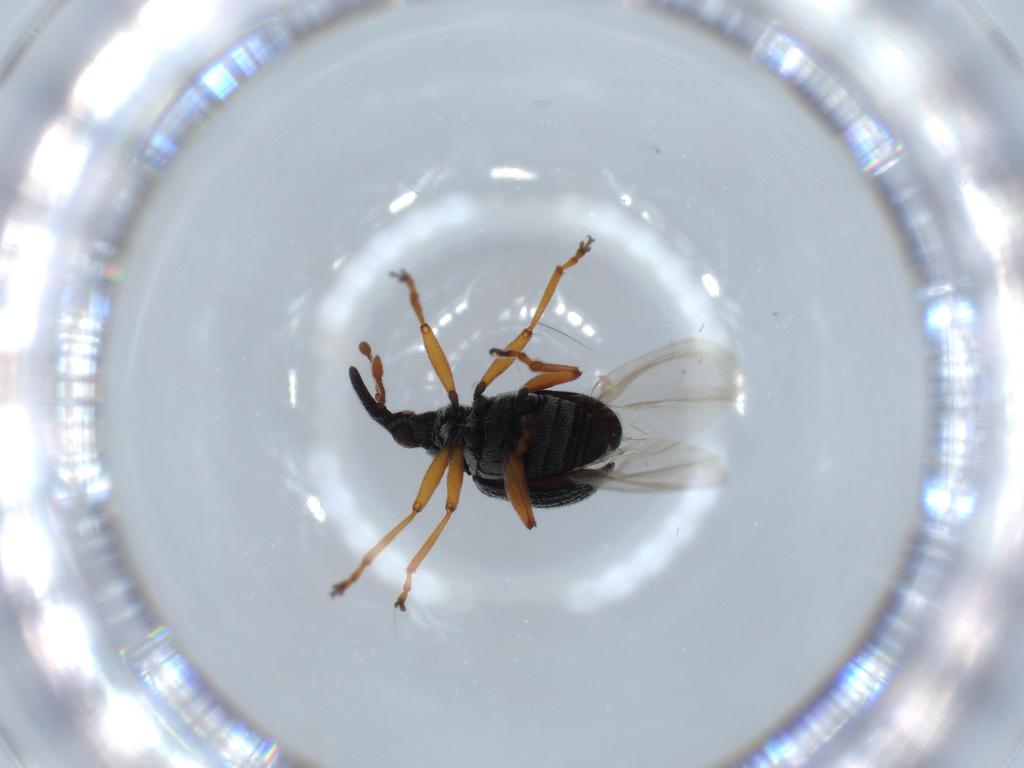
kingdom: Animalia
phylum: Arthropoda
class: Insecta
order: Coleoptera
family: Brentidae
